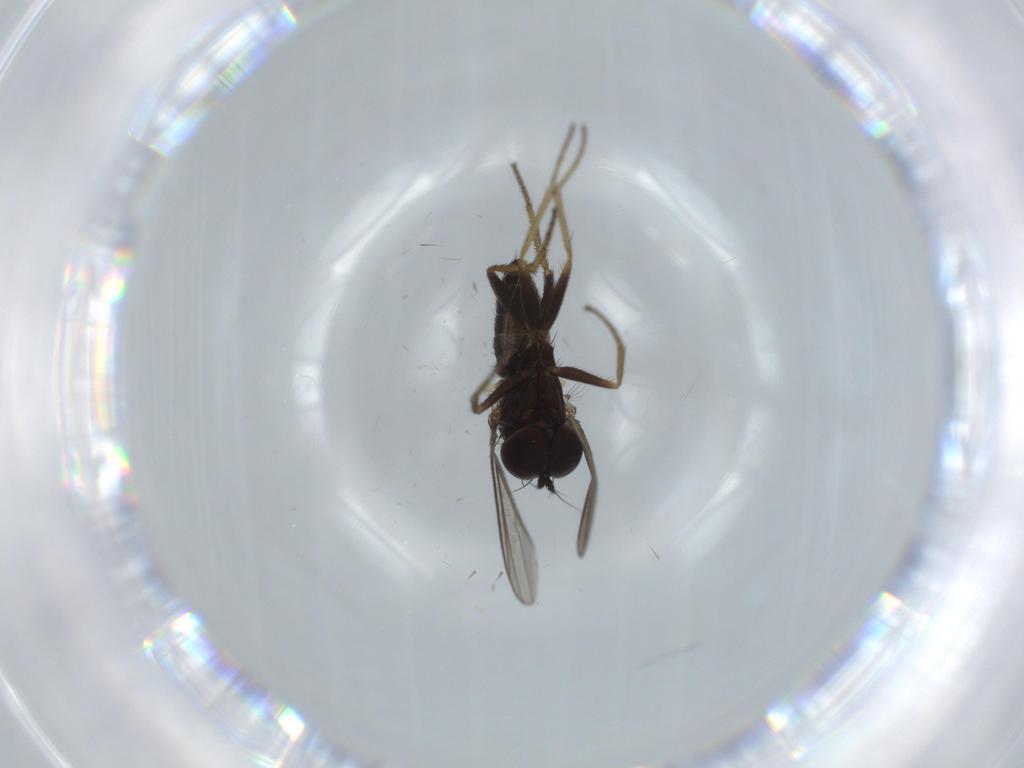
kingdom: Animalia
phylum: Arthropoda
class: Insecta
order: Diptera
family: Dolichopodidae
